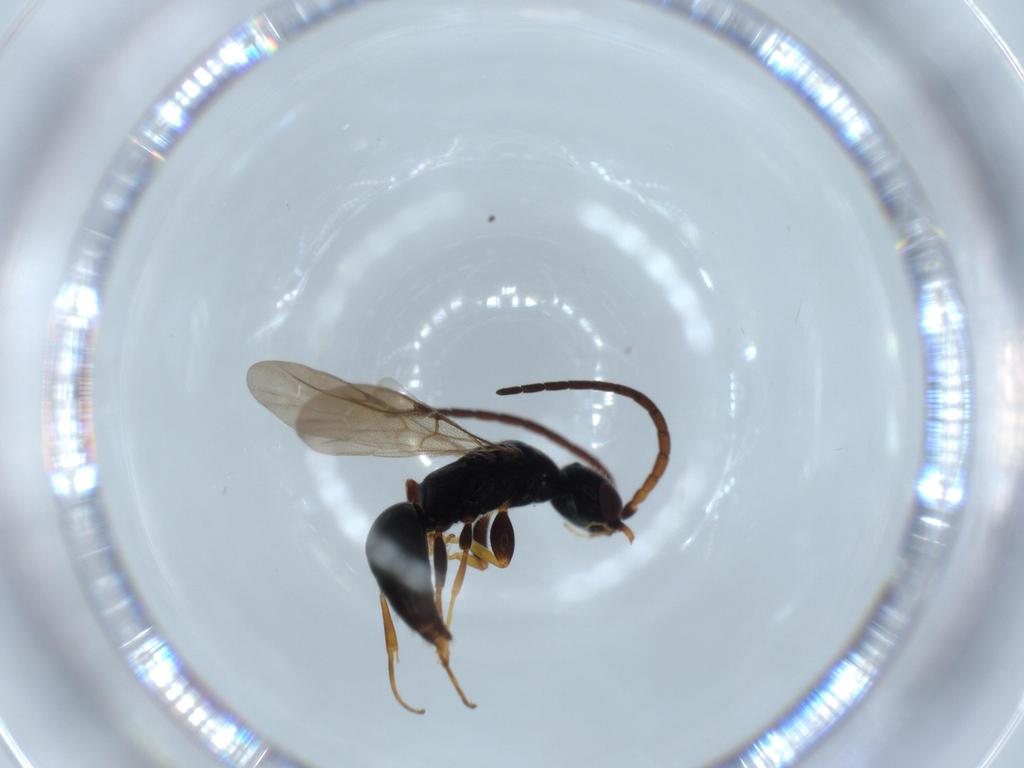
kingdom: Animalia
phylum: Arthropoda
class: Insecta
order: Hymenoptera
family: Bethylidae
